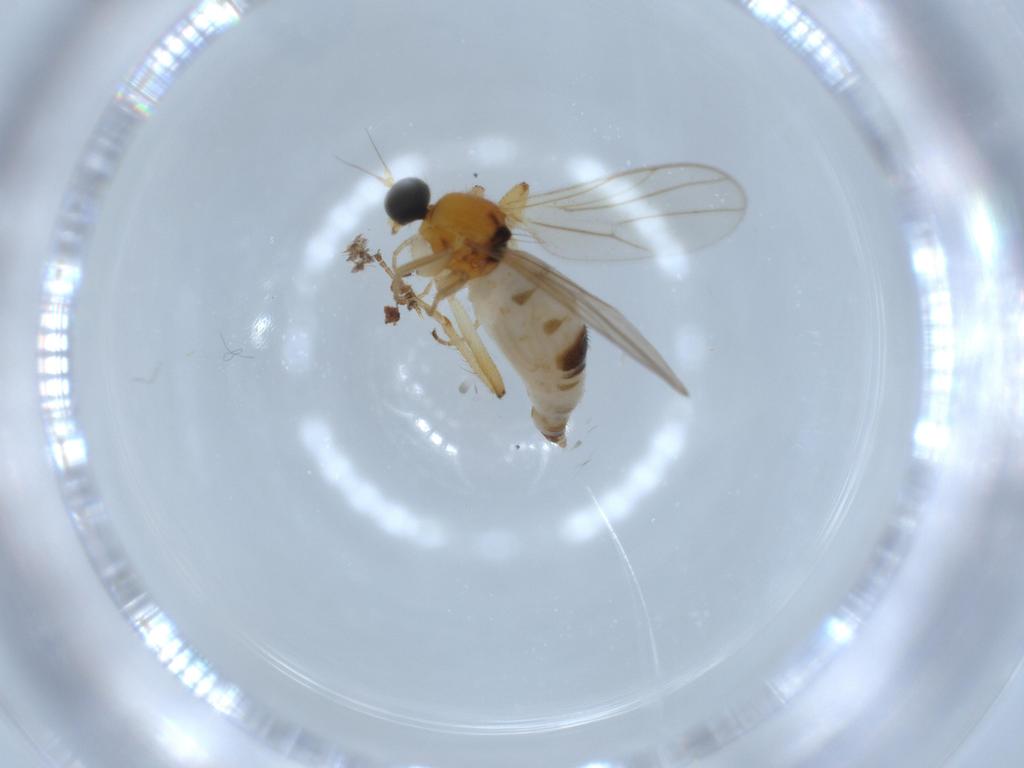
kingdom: Animalia
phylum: Arthropoda
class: Insecta
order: Diptera
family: Hybotidae
